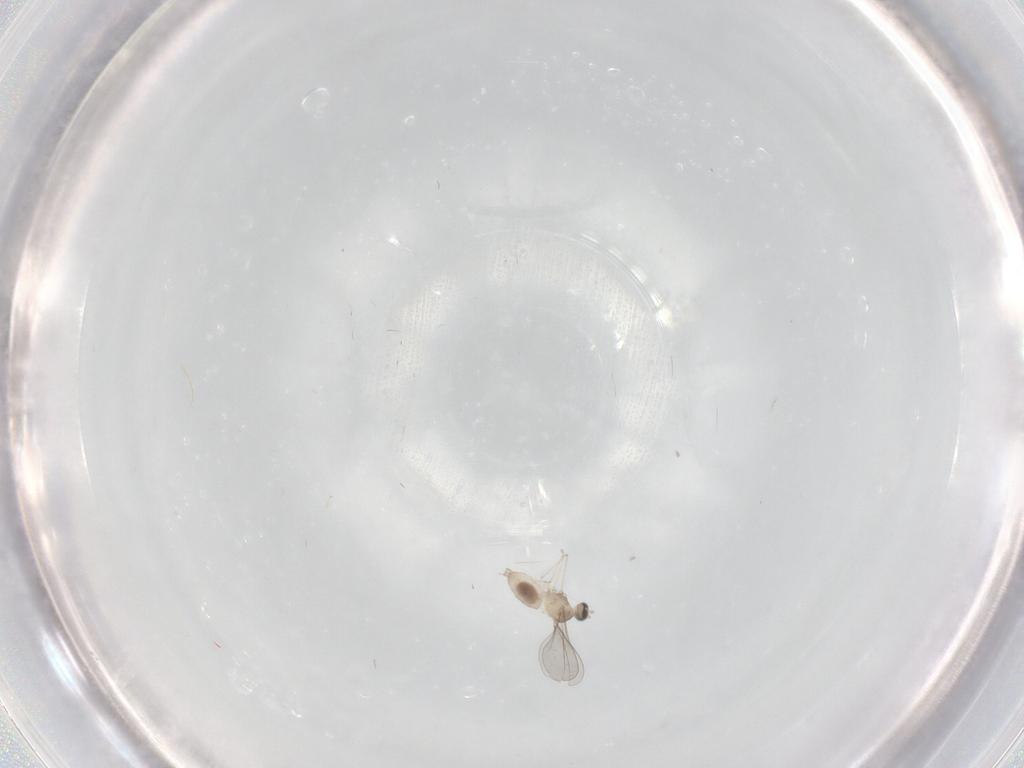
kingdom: Animalia
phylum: Arthropoda
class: Insecta
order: Diptera
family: Cecidomyiidae
